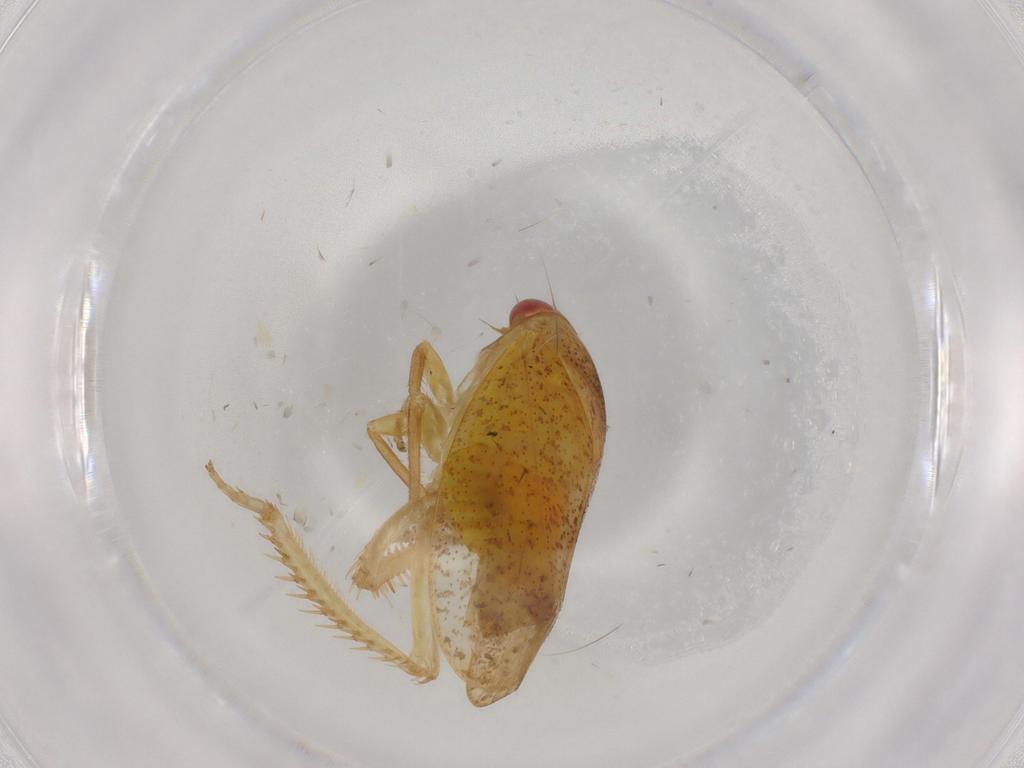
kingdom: Animalia
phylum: Arthropoda
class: Insecta
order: Hemiptera
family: Cicadellidae
